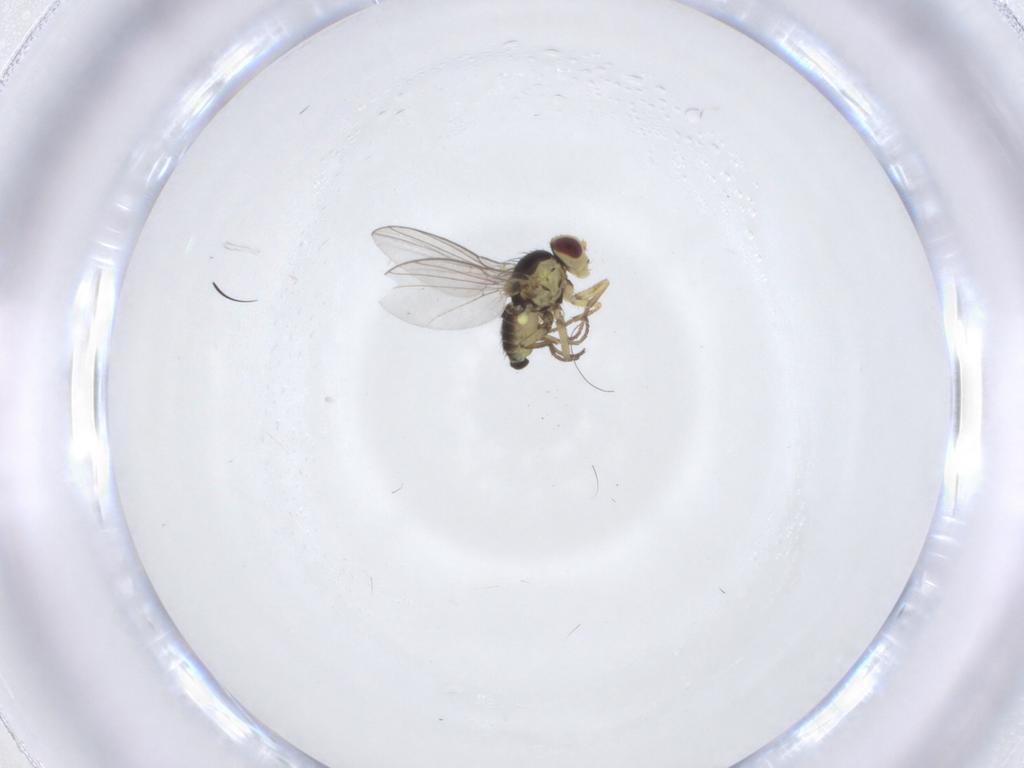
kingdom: Animalia
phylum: Arthropoda
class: Insecta
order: Diptera
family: Agromyzidae
